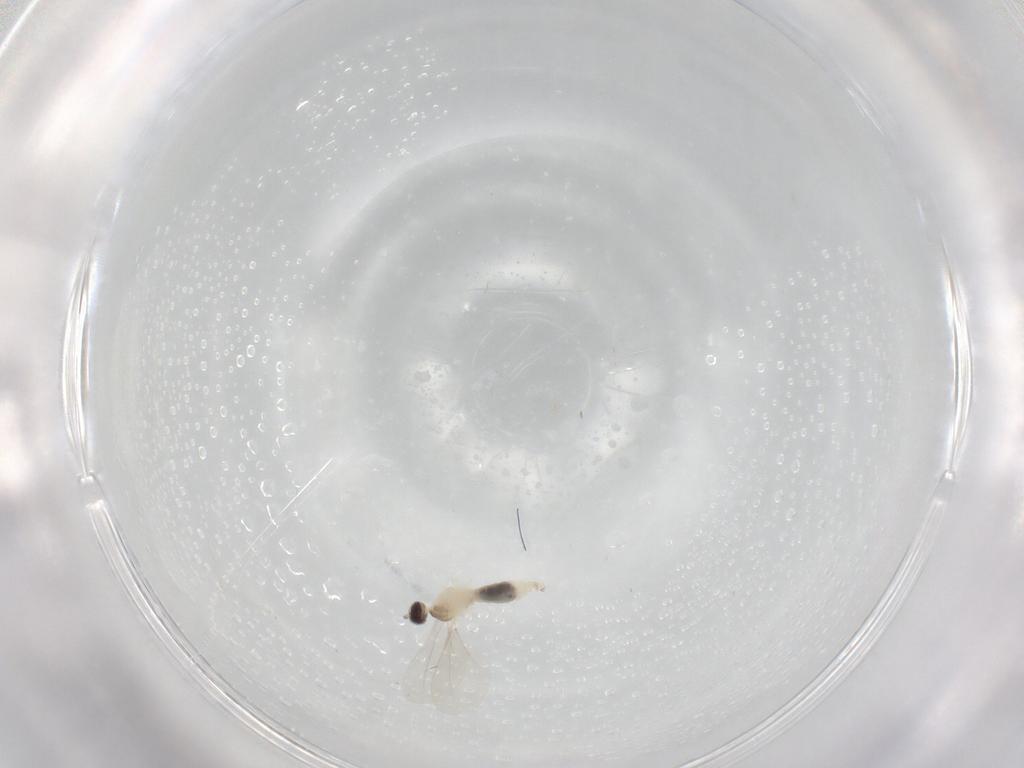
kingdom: Animalia
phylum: Arthropoda
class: Insecta
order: Diptera
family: Cecidomyiidae
